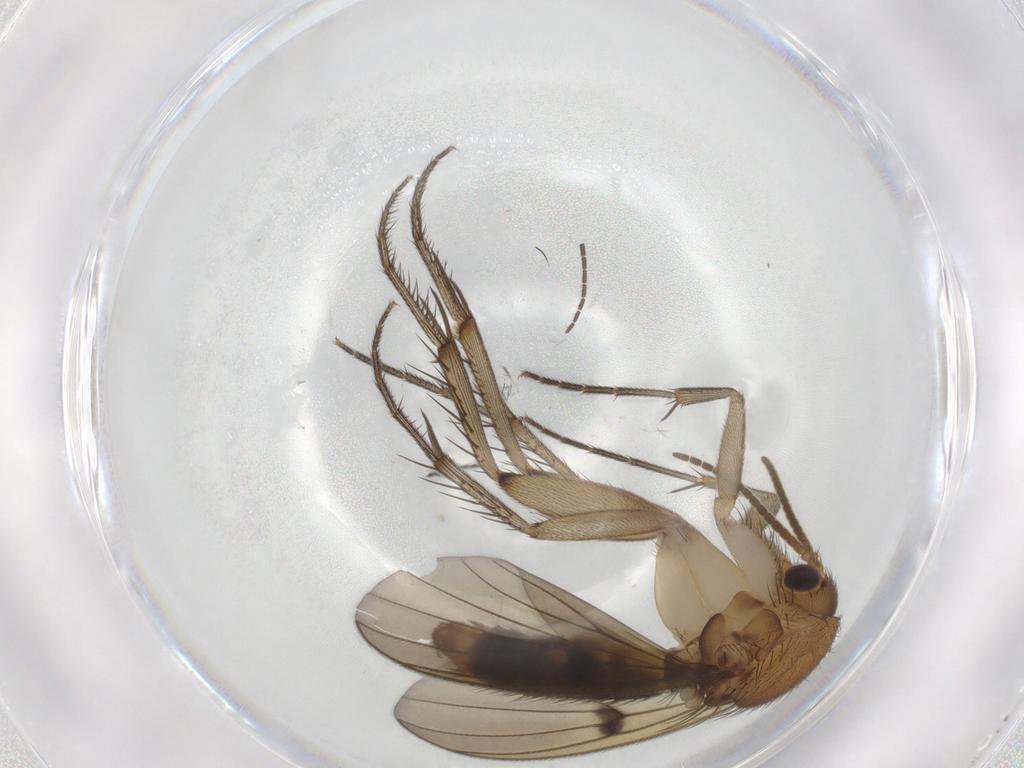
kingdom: Animalia
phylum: Arthropoda
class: Insecta
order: Diptera
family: Mycetophilidae
